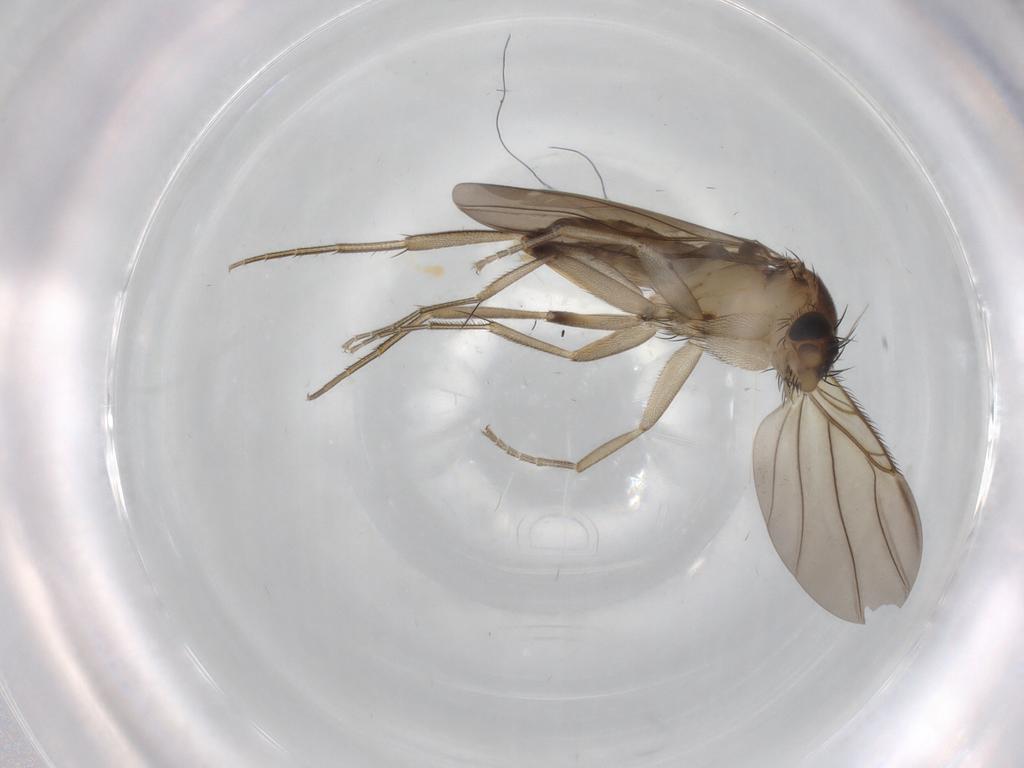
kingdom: Animalia
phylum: Arthropoda
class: Insecta
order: Diptera
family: Phoridae
